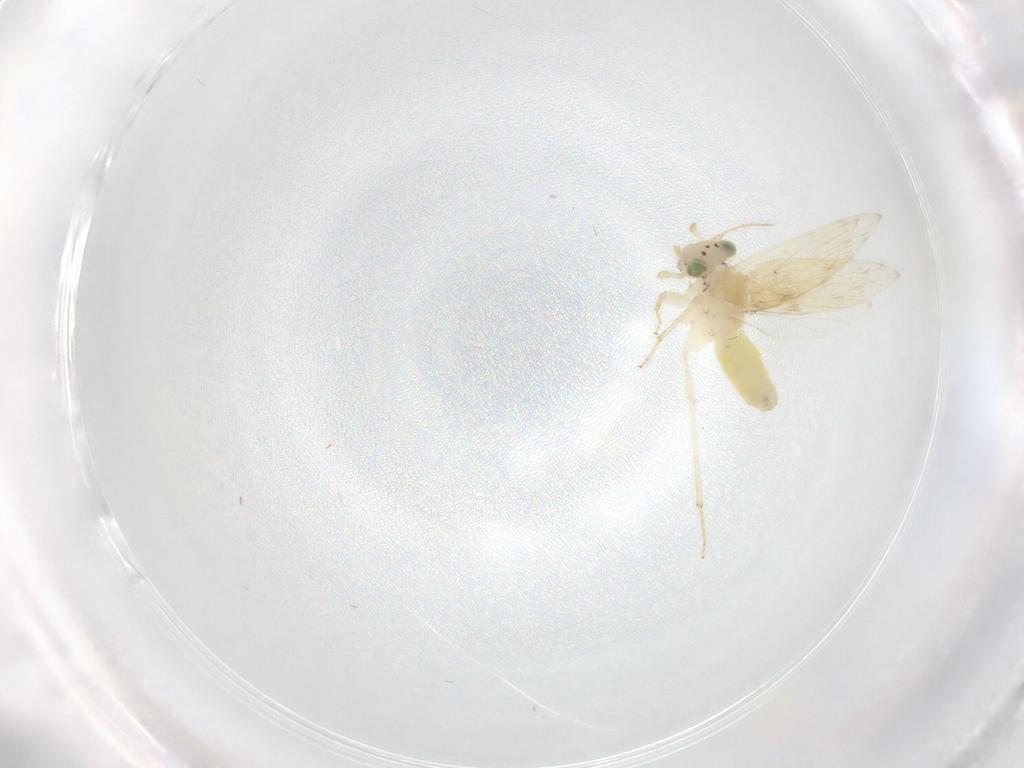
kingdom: Animalia
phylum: Arthropoda
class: Insecta
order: Psocodea
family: Lepidopsocidae
